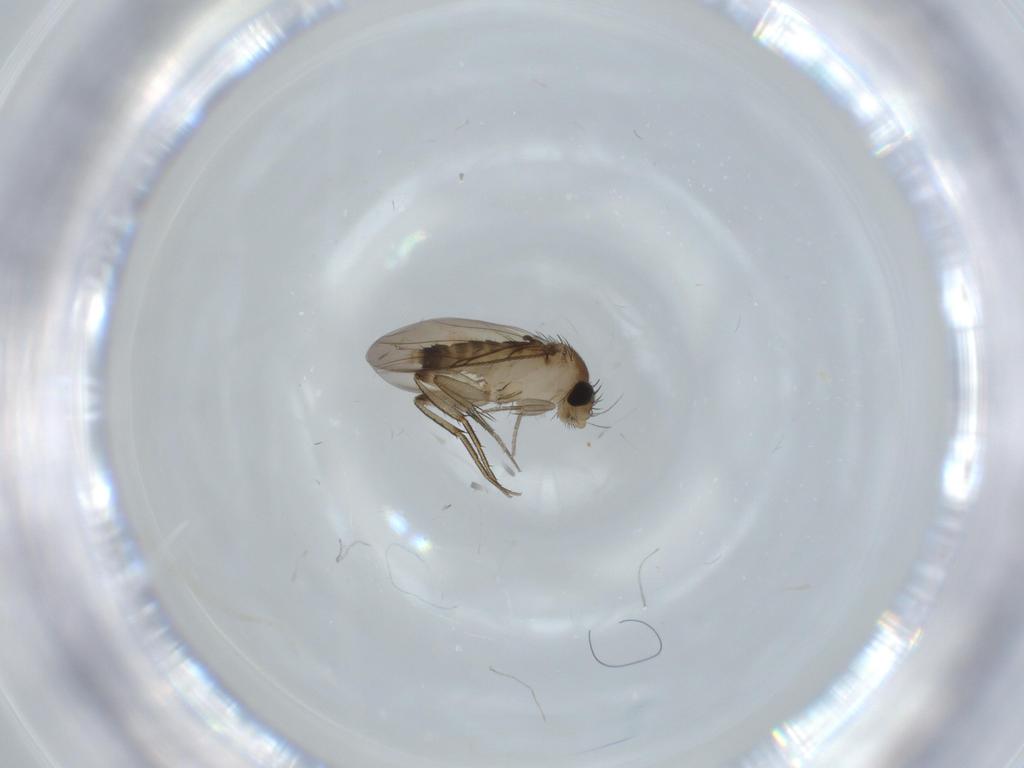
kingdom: Animalia
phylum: Arthropoda
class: Insecta
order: Diptera
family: Phoridae
